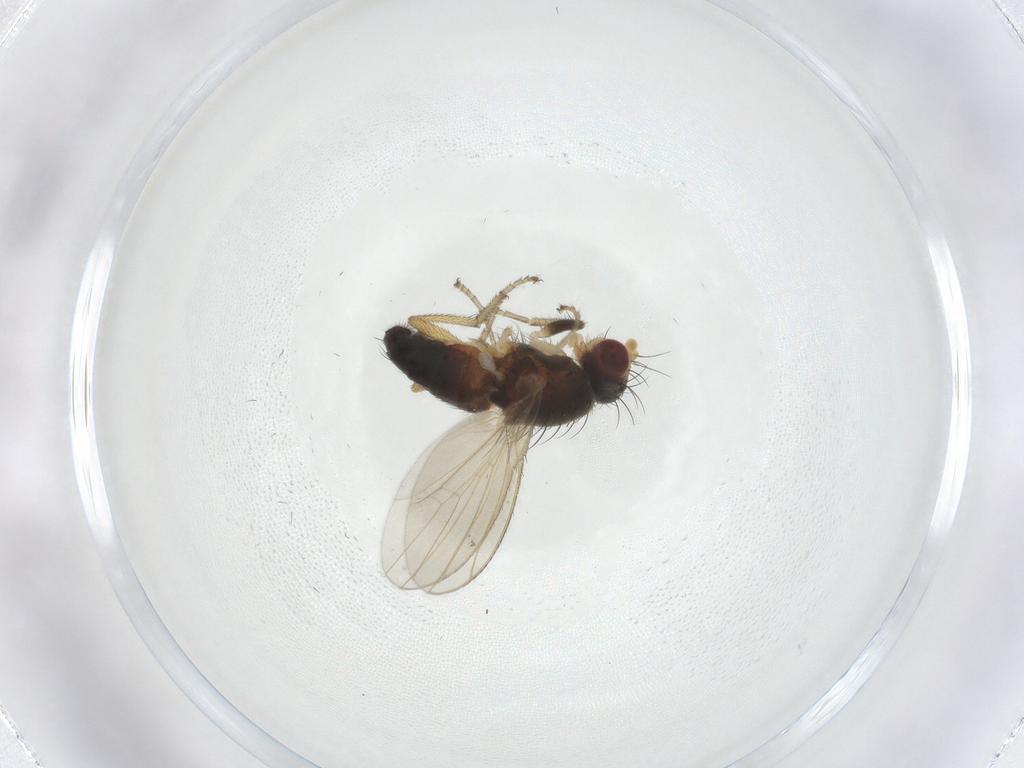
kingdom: Animalia
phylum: Arthropoda
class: Insecta
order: Diptera
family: Heleomyzidae
